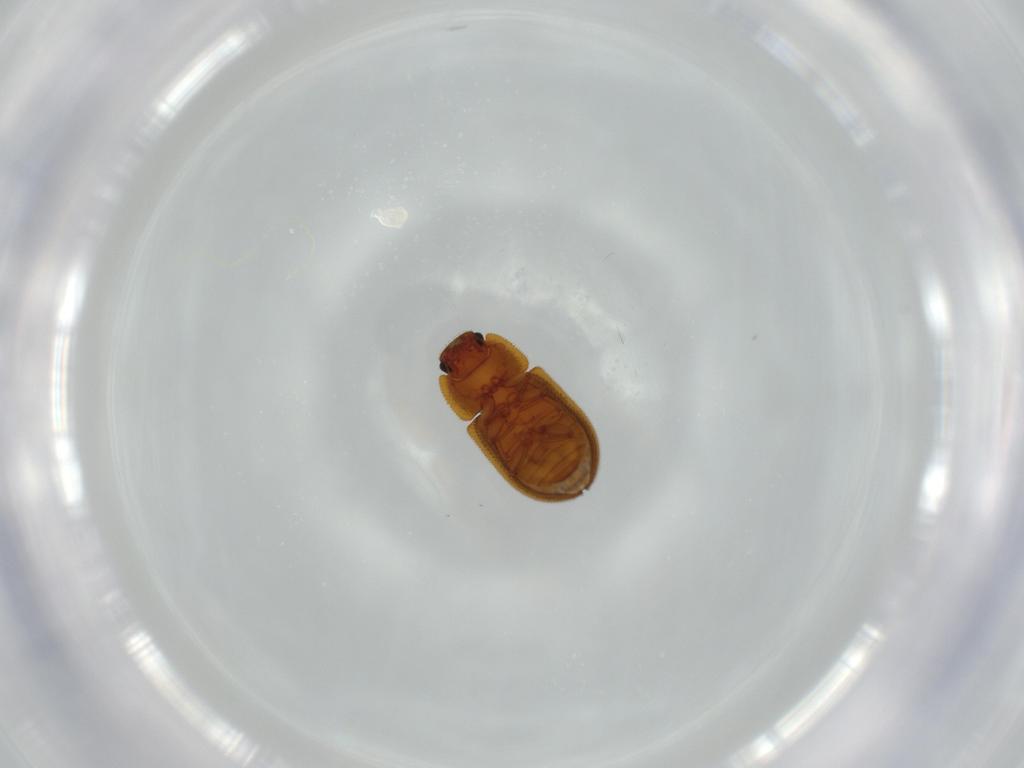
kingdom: Animalia
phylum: Arthropoda
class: Insecta
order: Coleoptera
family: Zopheridae
